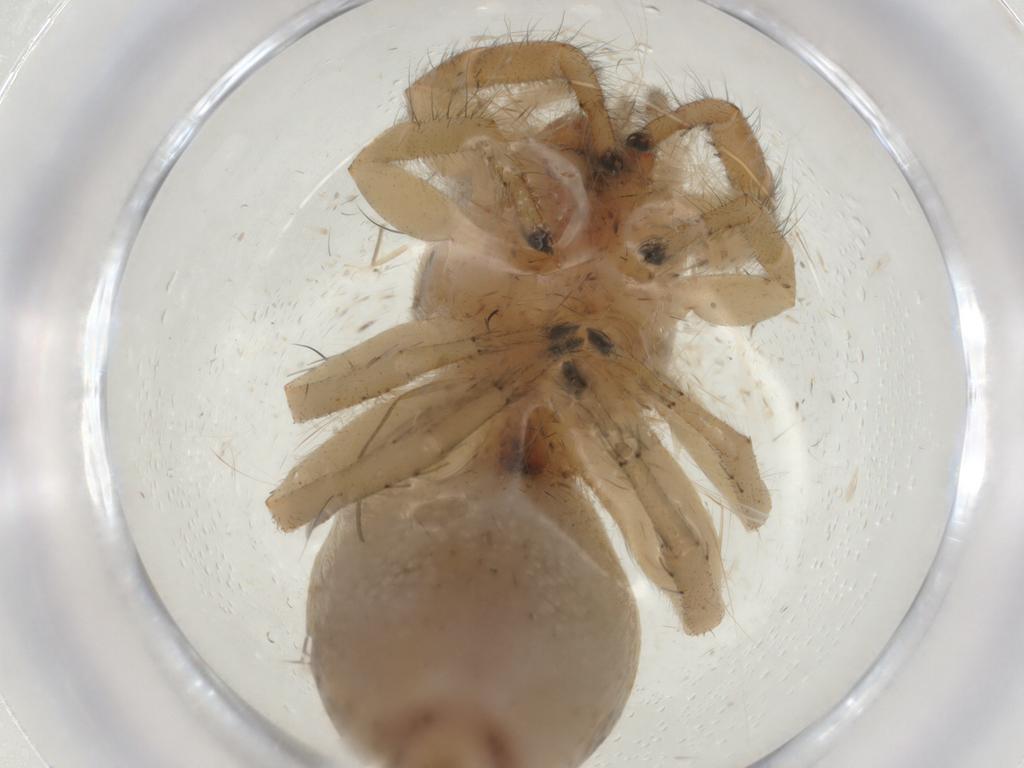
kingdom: Animalia
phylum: Arthropoda
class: Arachnida
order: Araneae
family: Salticidae
